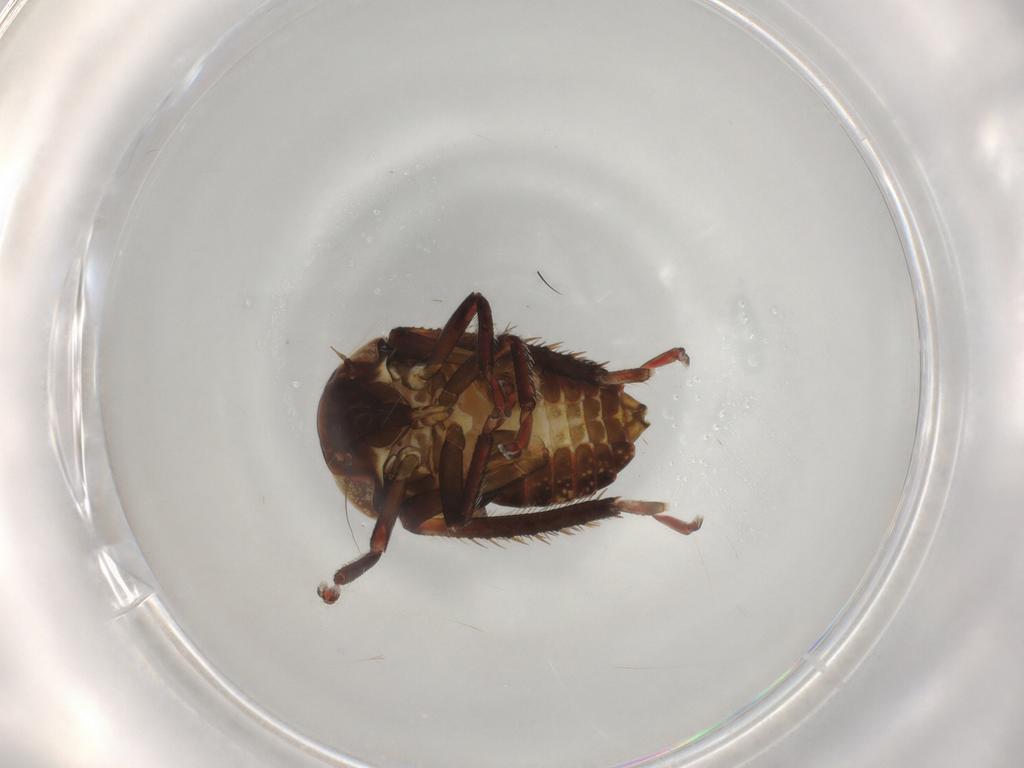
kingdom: Animalia
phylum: Arthropoda
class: Insecta
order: Hemiptera
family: Cicadellidae
